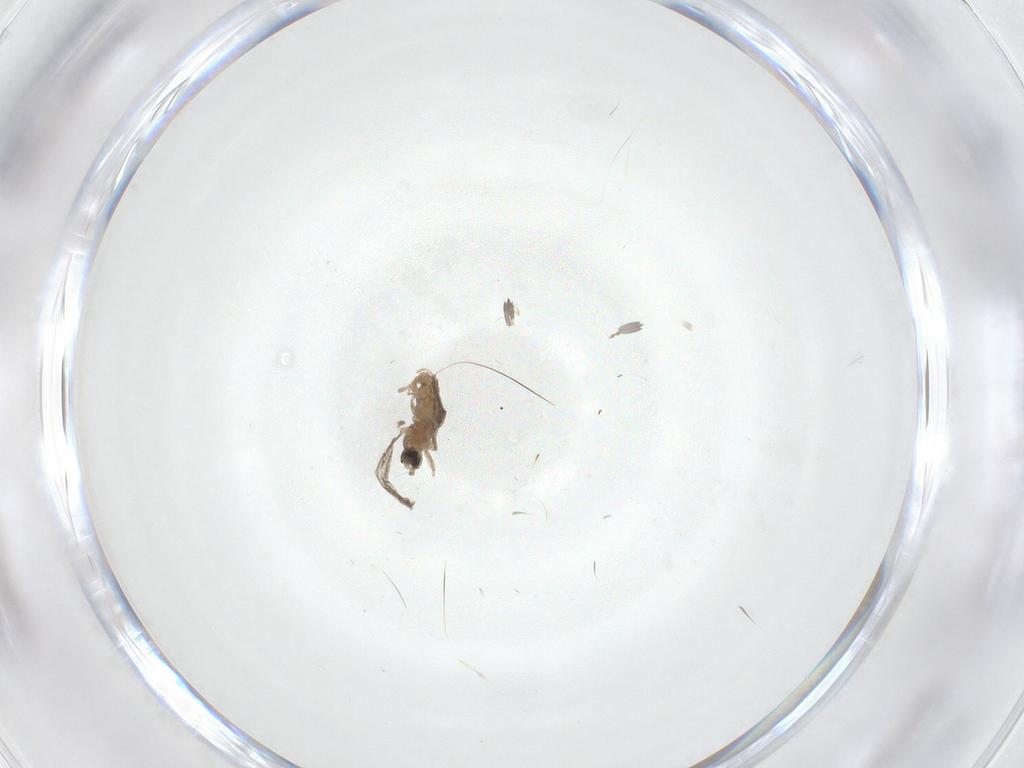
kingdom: Animalia
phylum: Arthropoda
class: Insecta
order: Diptera
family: Cecidomyiidae
